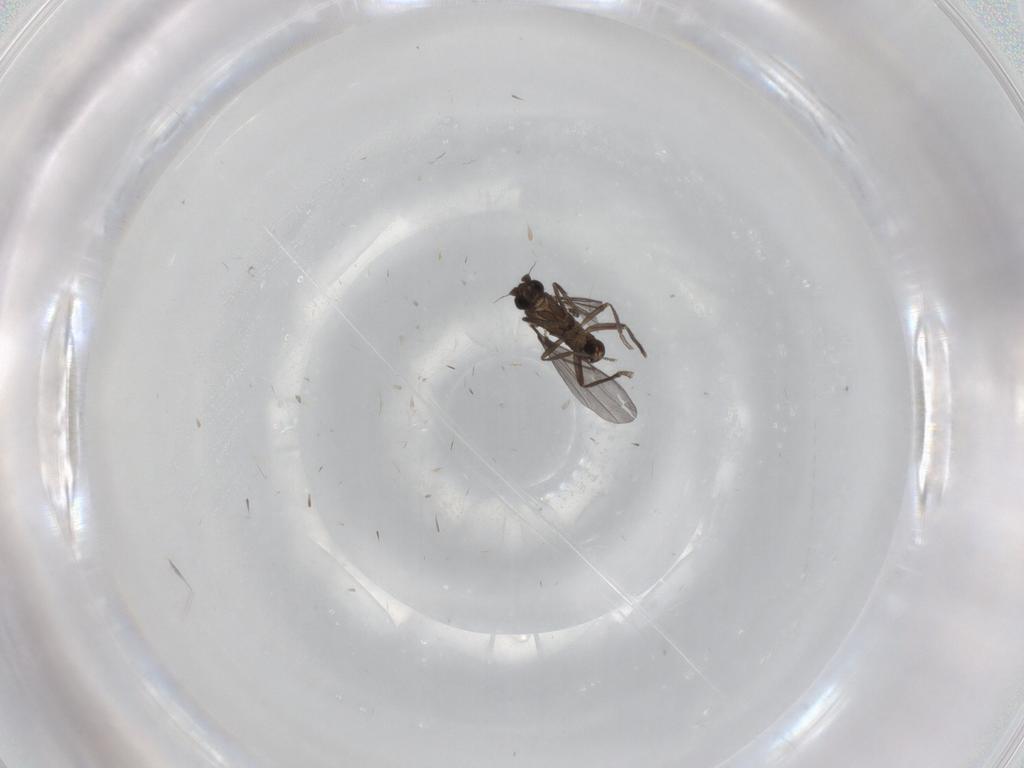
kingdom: Animalia
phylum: Arthropoda
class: Insecta
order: Diptera
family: Phoridae
